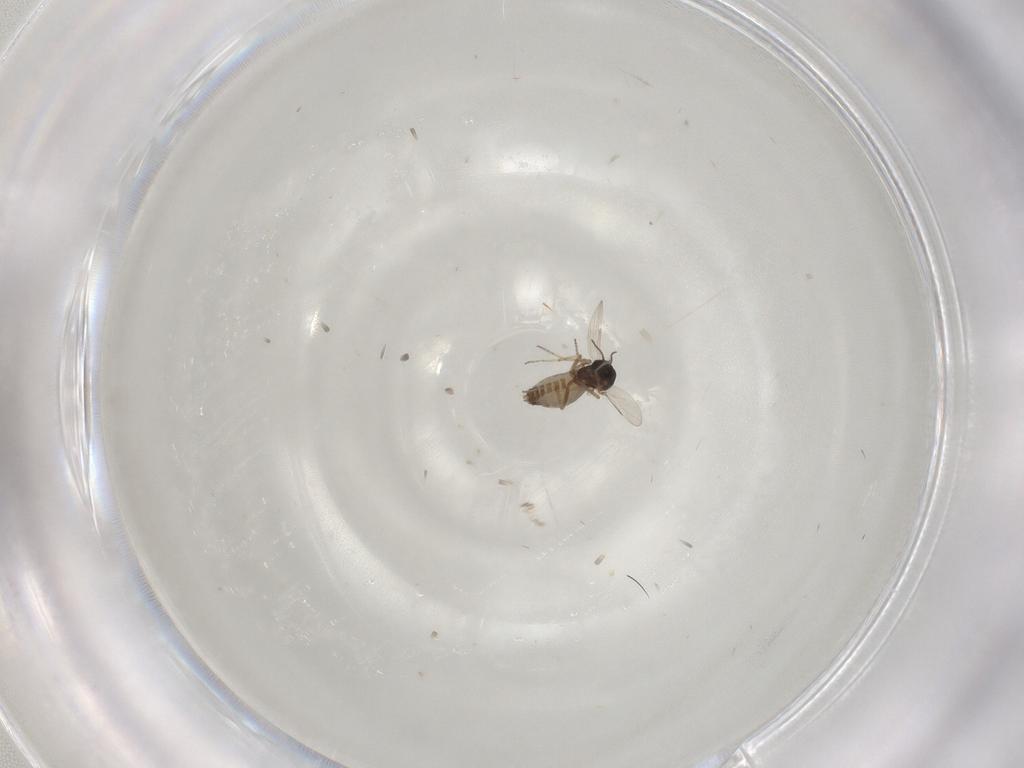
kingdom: Animalia
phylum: Arthropoda
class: Insecta
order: Diptera
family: Ceratopogonidae
